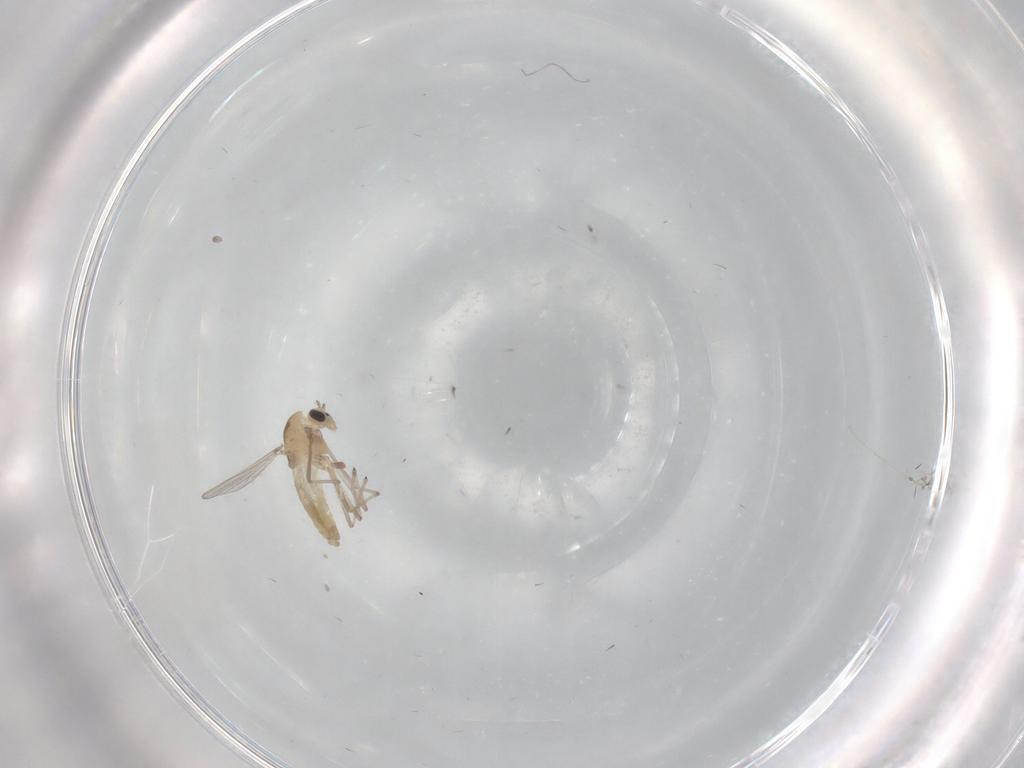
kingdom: Animalia
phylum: Arthropoda
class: Insecta
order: Diptera
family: Chironomidae
